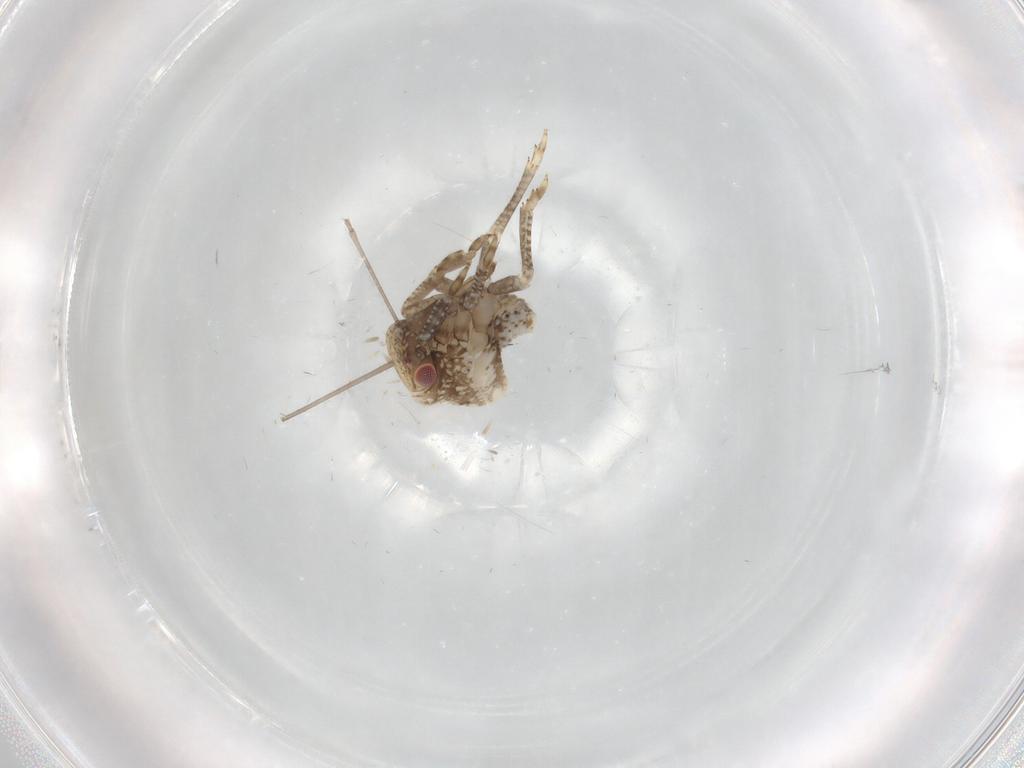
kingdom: Animalia
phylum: Arthropoda
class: Insecta
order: Hemiptera
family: Acanaloniidae
